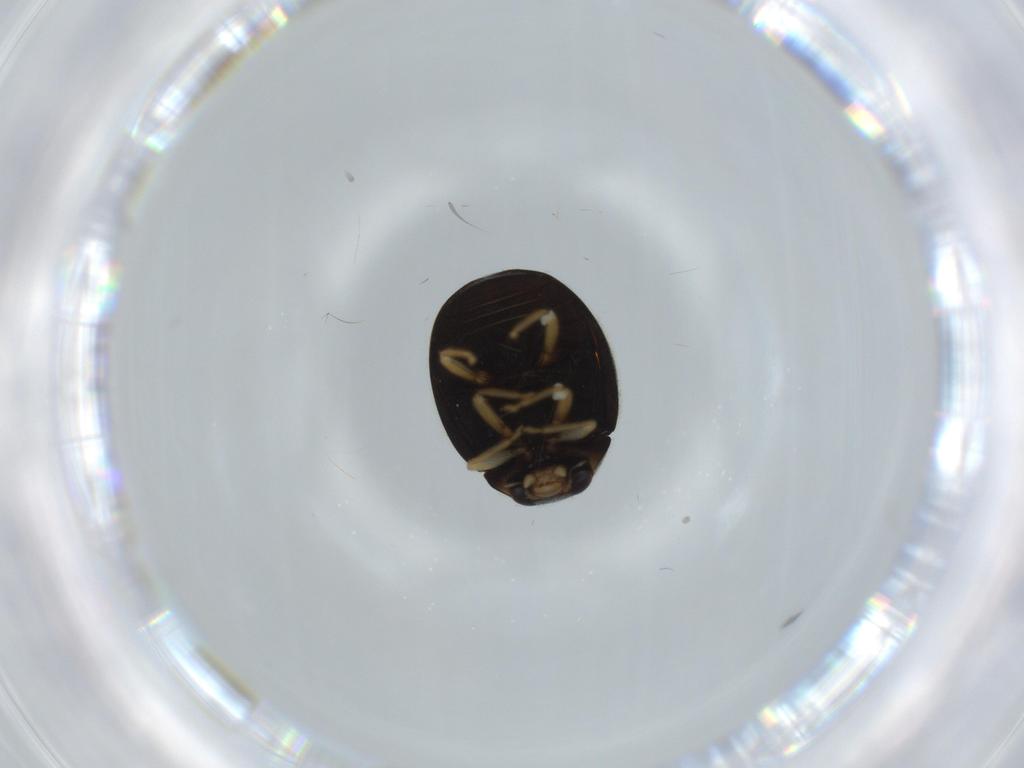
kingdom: Animalia
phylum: Arthropoda
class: Insecta
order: Coleoptera
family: Coccinellidae
